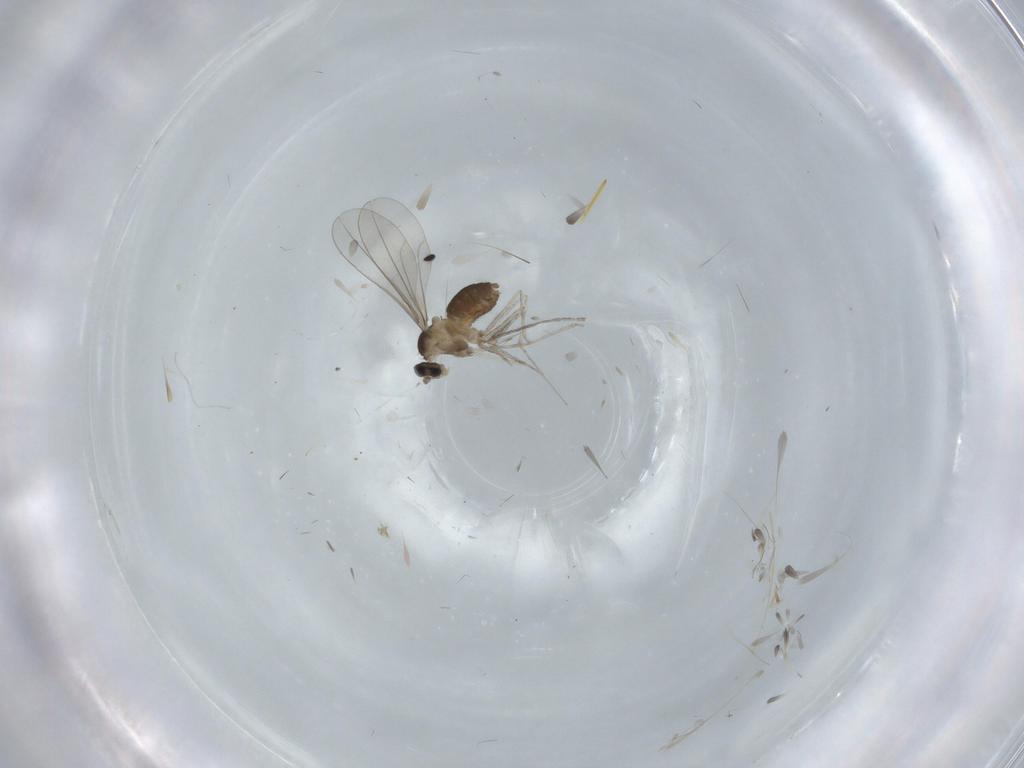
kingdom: Animalia
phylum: Arthropoda
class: Insecta
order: Diptera
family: Cecidomyiidae
